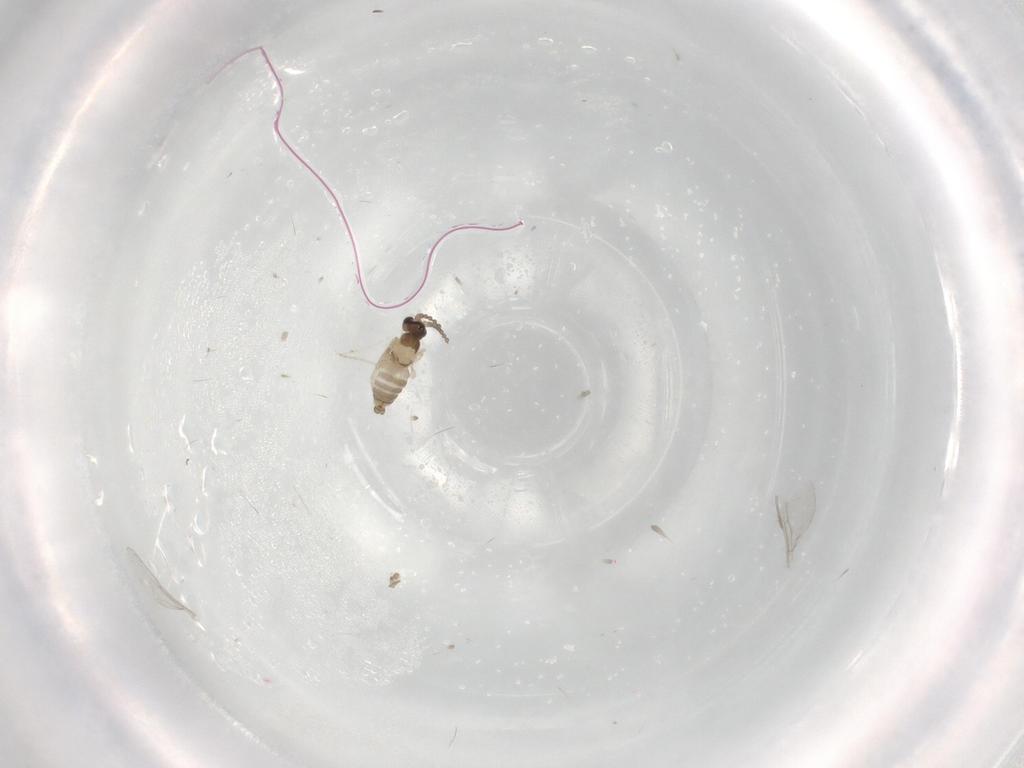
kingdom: Animalia
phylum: Arthropoda
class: Insecta
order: Diptera
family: Cecidomyiidae
